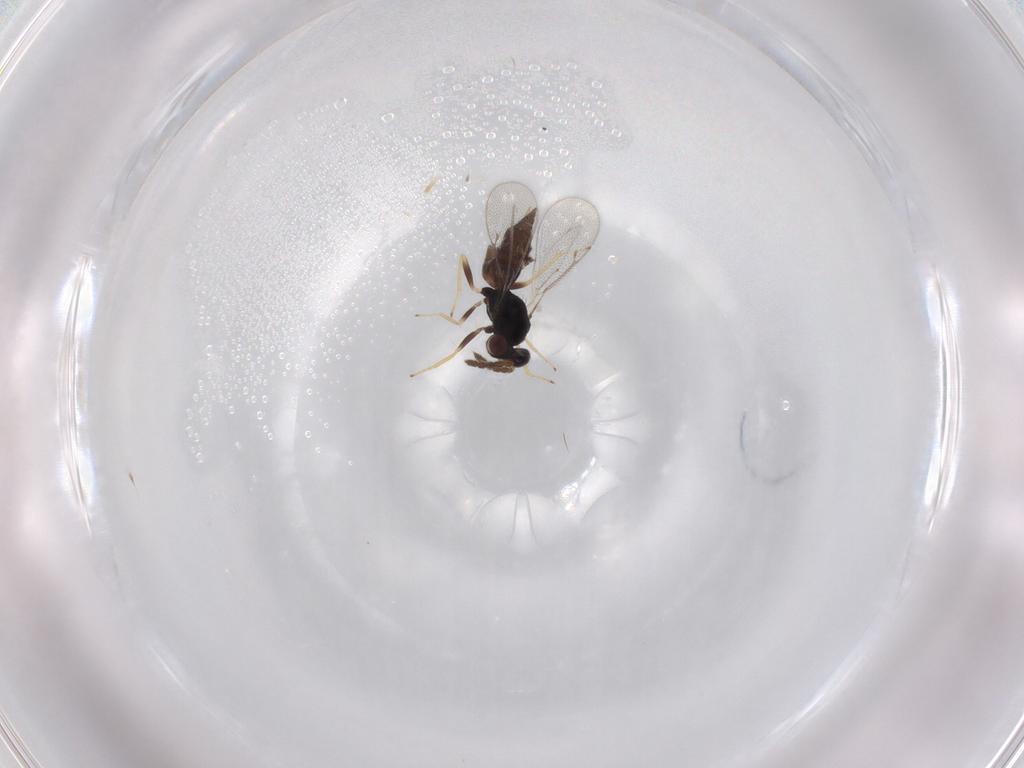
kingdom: Animalia
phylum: Arthropoda
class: Insecta
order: Hymenoptera
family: Eulophidae
